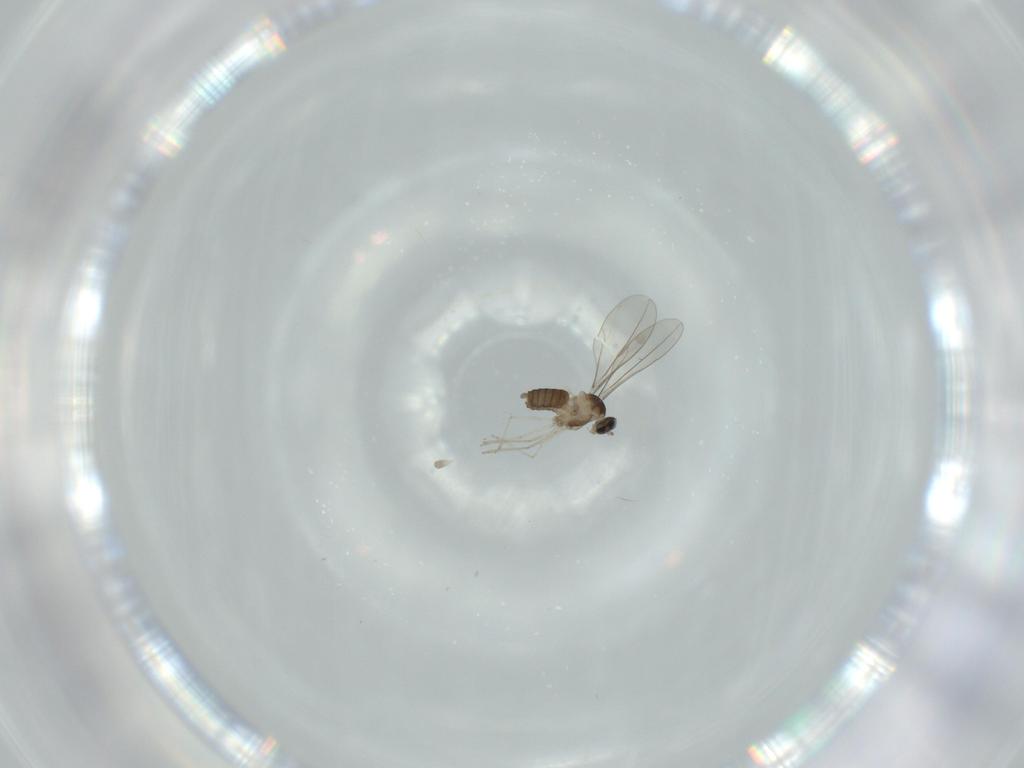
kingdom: Animalia
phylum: Arthropoda
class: Insecta
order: Diptera
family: Cecidomyiidae
